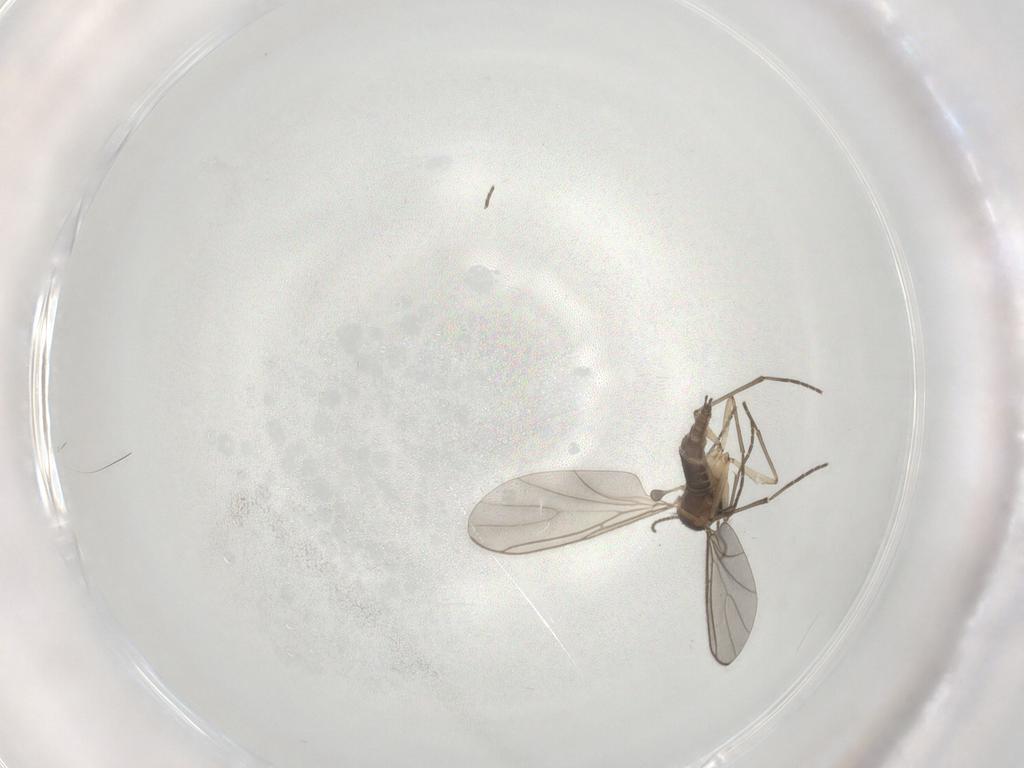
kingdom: Animalia
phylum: Arthropoda
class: Insecta
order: Diptera
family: Sciaridae
